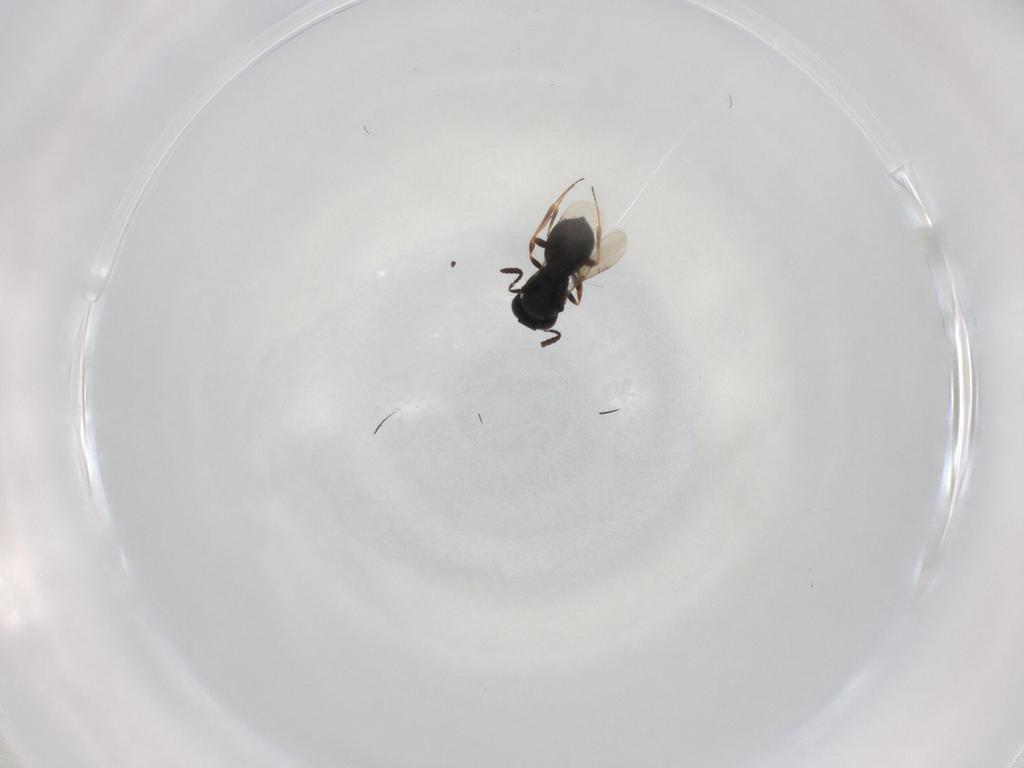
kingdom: Animalia
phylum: Arthropoda
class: Insecta
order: Hymenoptera
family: Scelionidae
